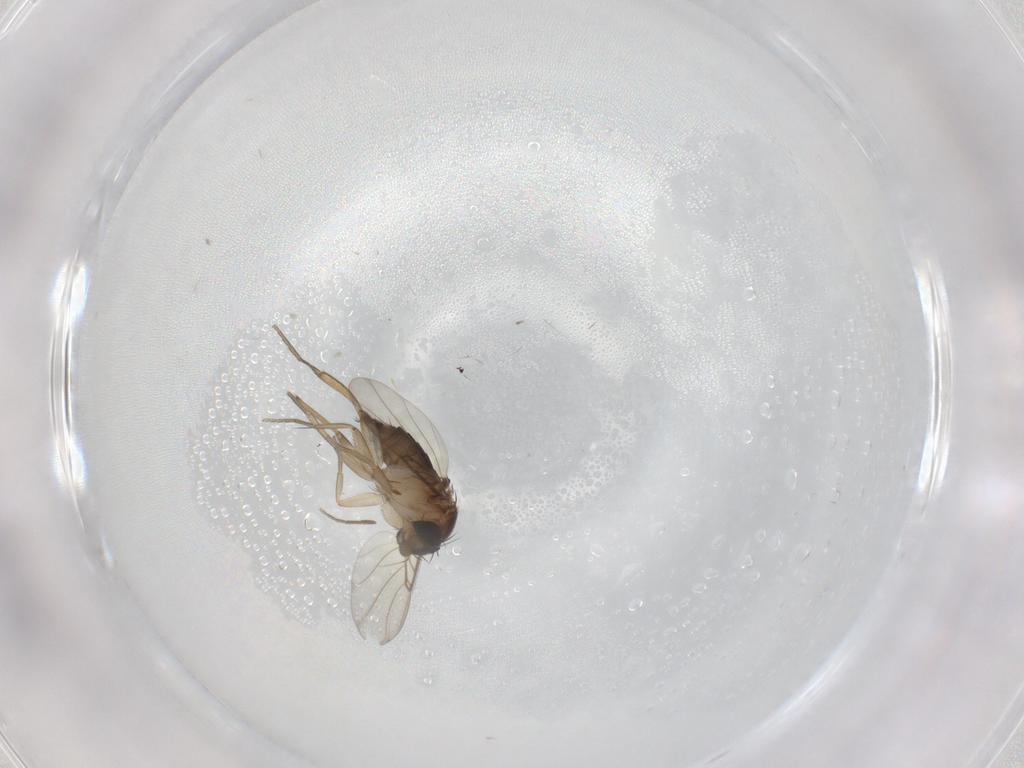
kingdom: Animalia
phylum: Arthropoda
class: Insecta
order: Diptera
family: Phoridae
